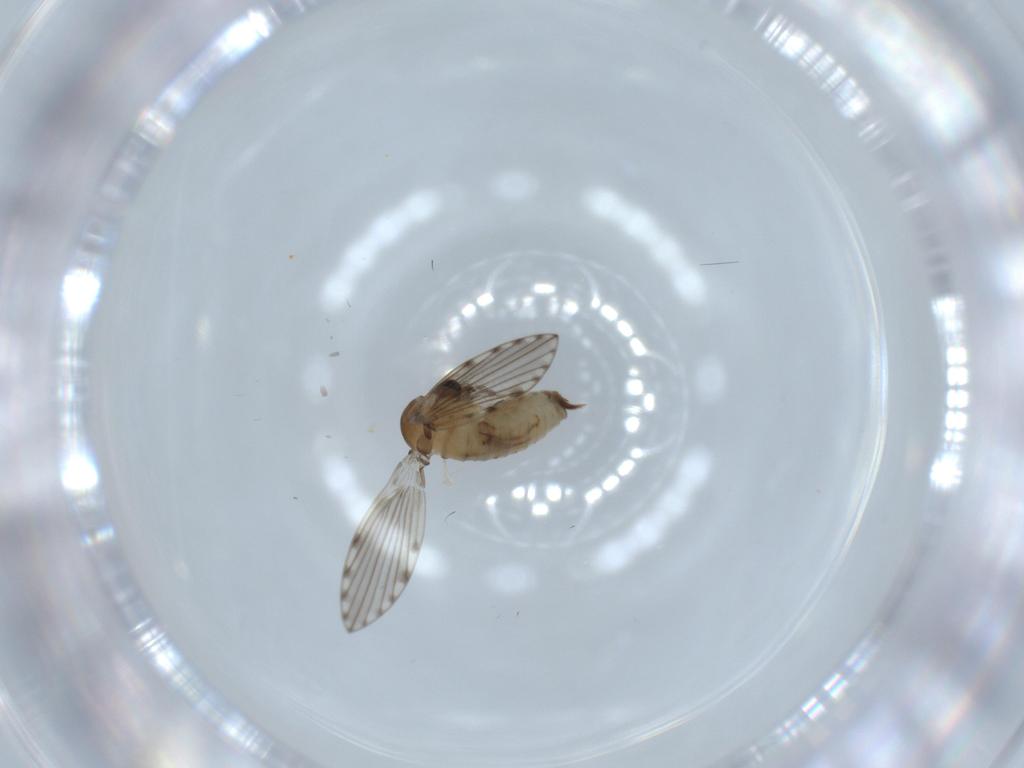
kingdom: Animalia
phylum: Arthropoda
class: Insecta
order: Diptera
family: Psychodidae
